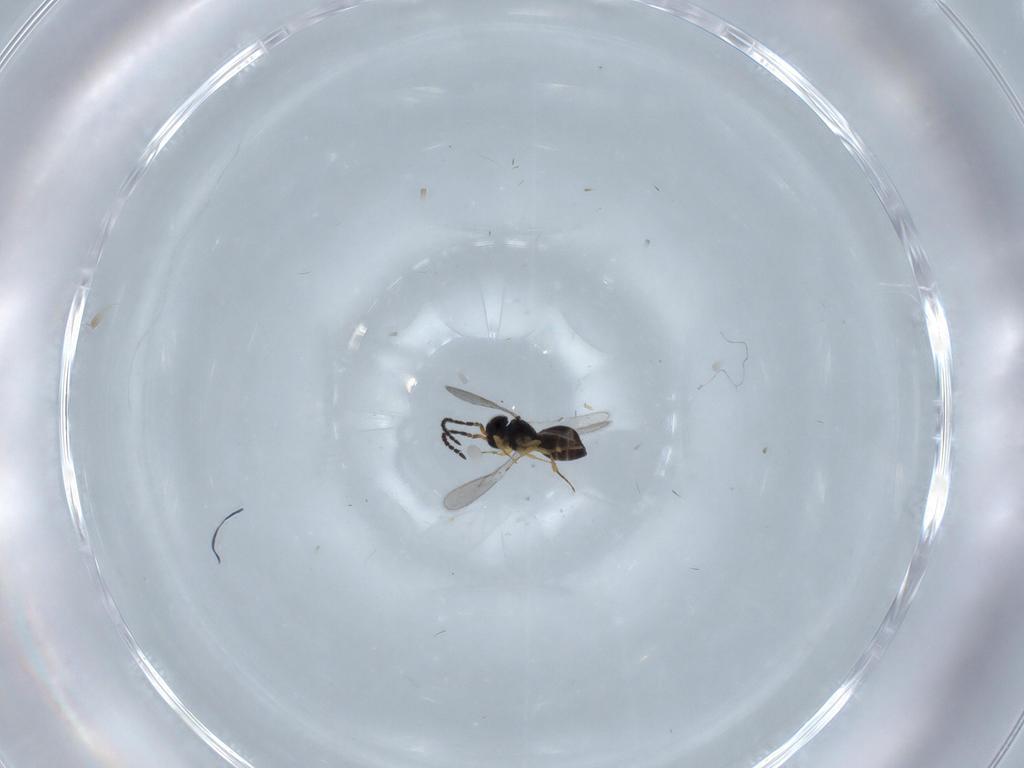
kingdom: Animalia
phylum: Arthropoda
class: Insecta
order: Hymenoptera
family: Scelionidae
